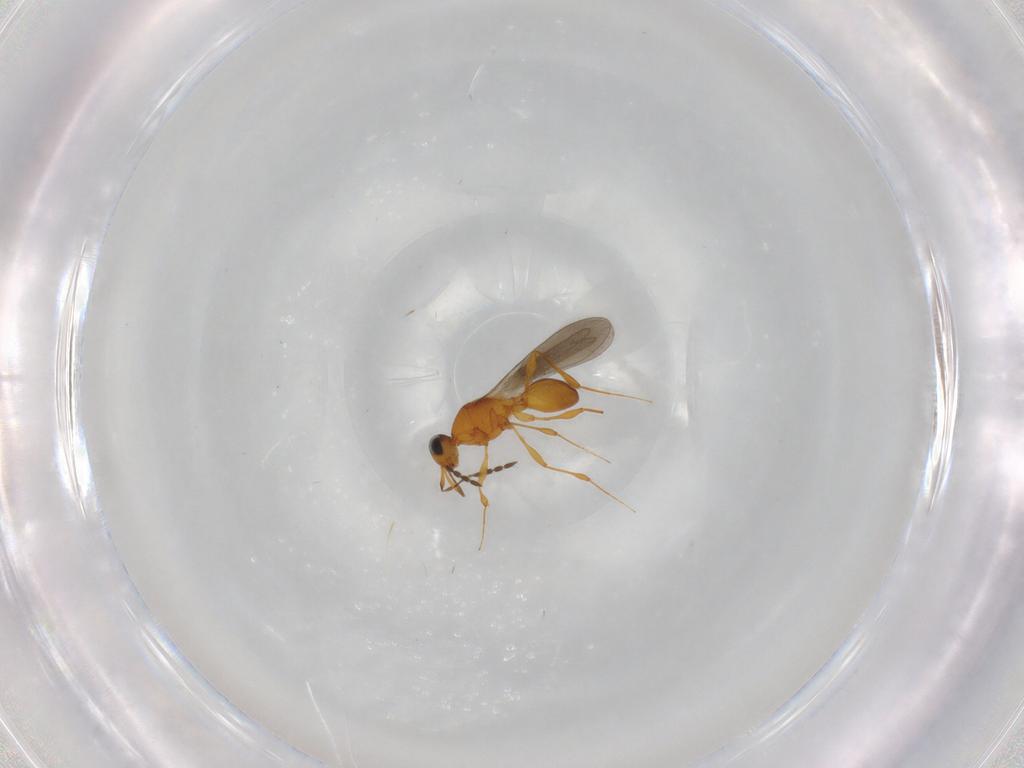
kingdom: Animalia
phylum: Arthropoda
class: Insecta
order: Hymenoptera
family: Platygastridae
